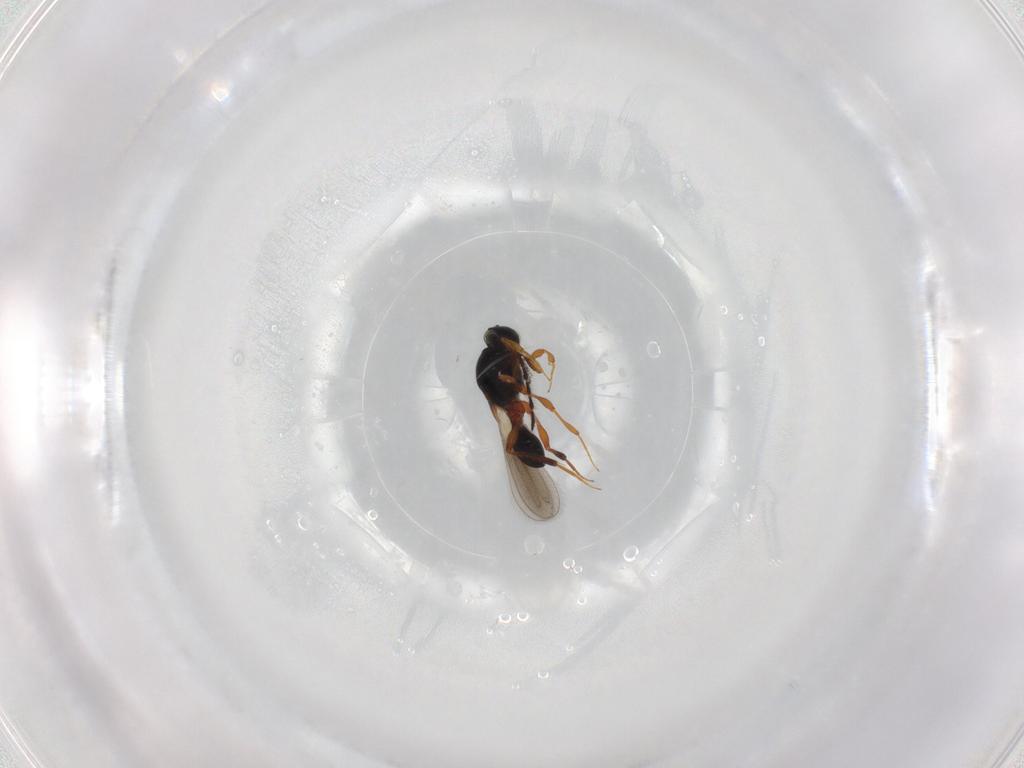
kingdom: Animalia
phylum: Arthropoda
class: Insecta
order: Hymenoptera
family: Platygastridae
